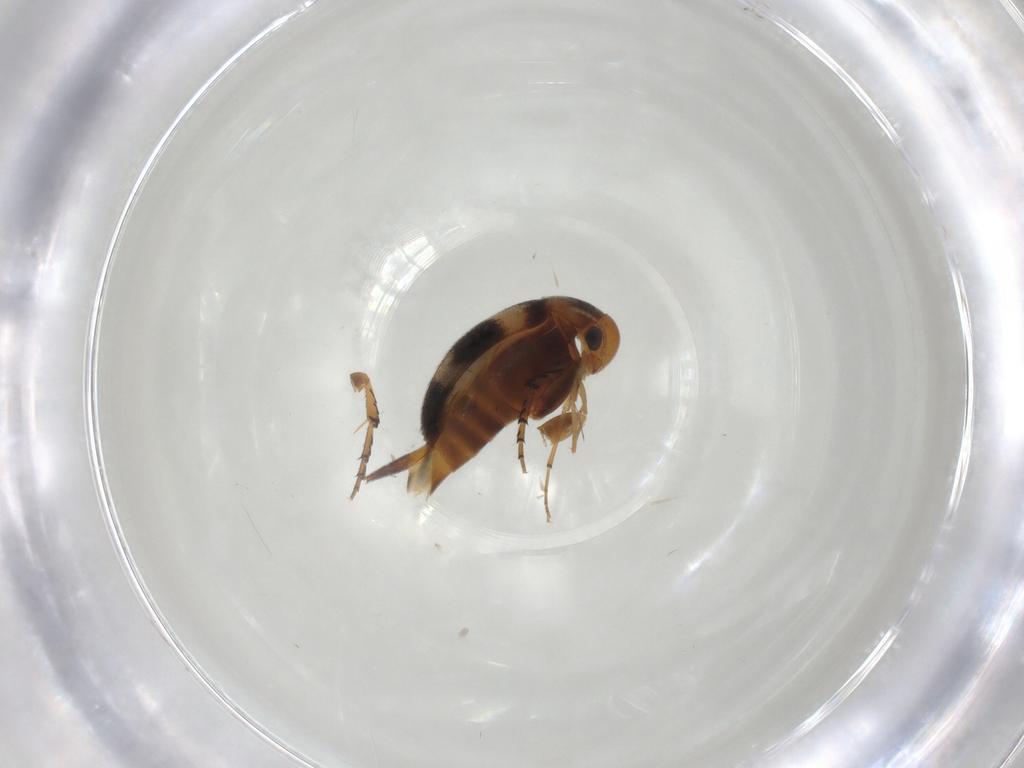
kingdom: Animalia
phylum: Arthropoda
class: Insecta
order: Coleoptera
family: Mordellidae
